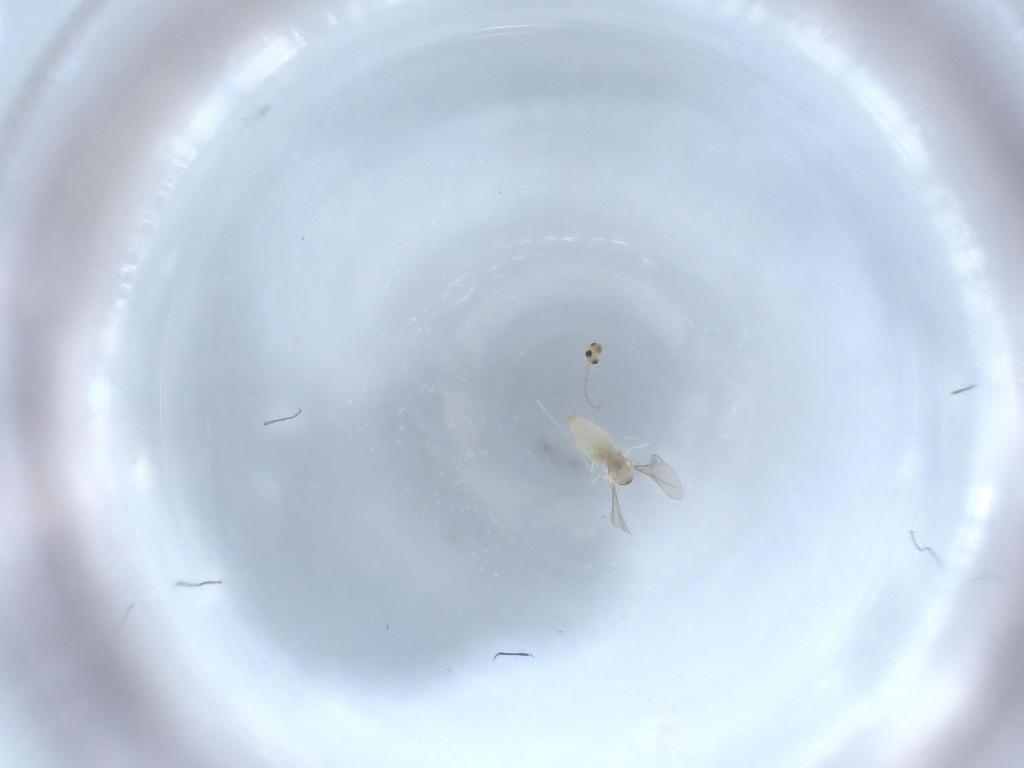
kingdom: Animalia
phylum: Arthropoda
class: Insecta
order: Diptera
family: Cecidomyiidae
